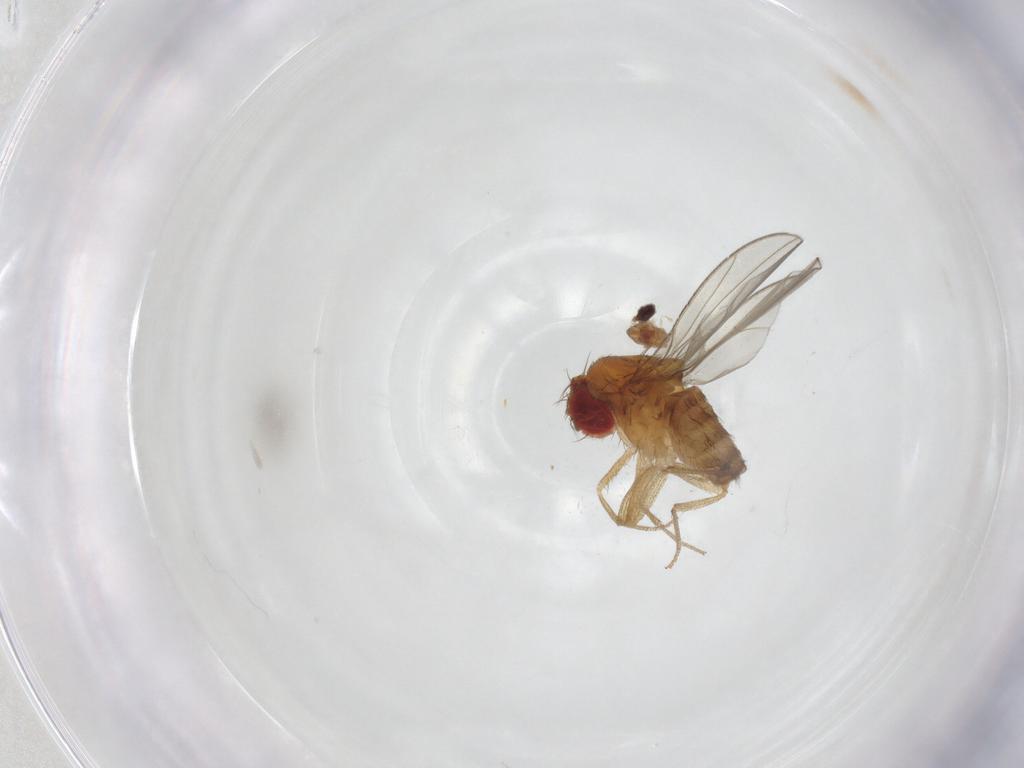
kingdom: Animalia
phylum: Arthropoda
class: Insecta
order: Diptera
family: Drosophilidae
